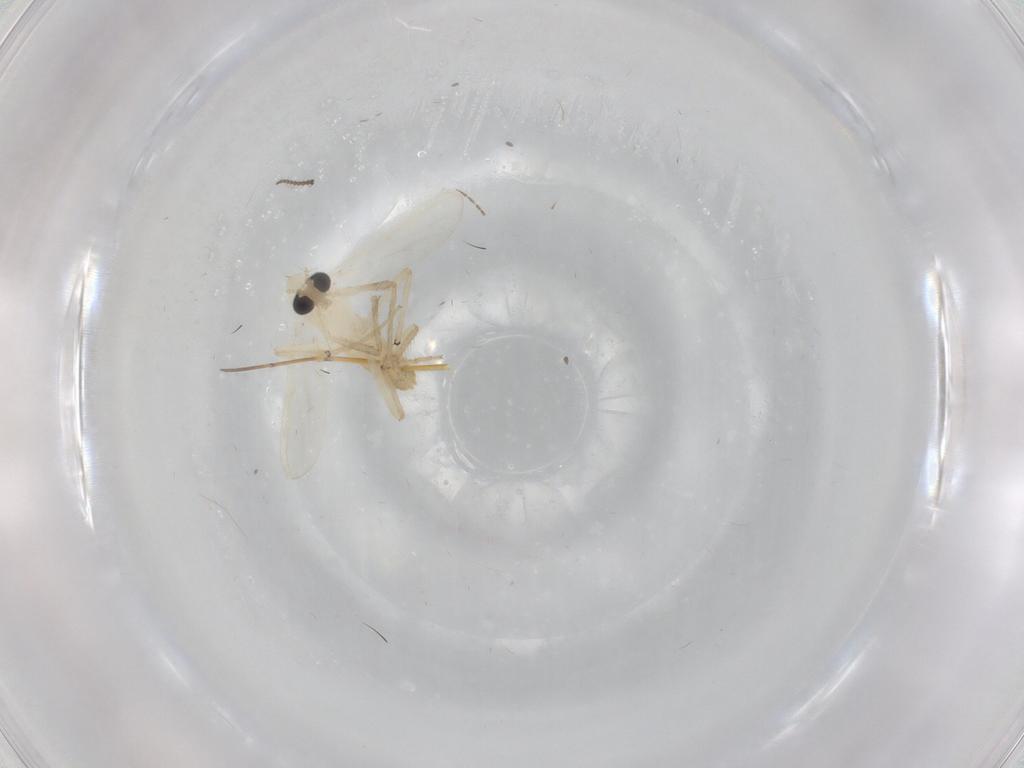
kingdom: Animalia
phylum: Arthropoda
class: Insecta
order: Diptera
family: Chironomidae
